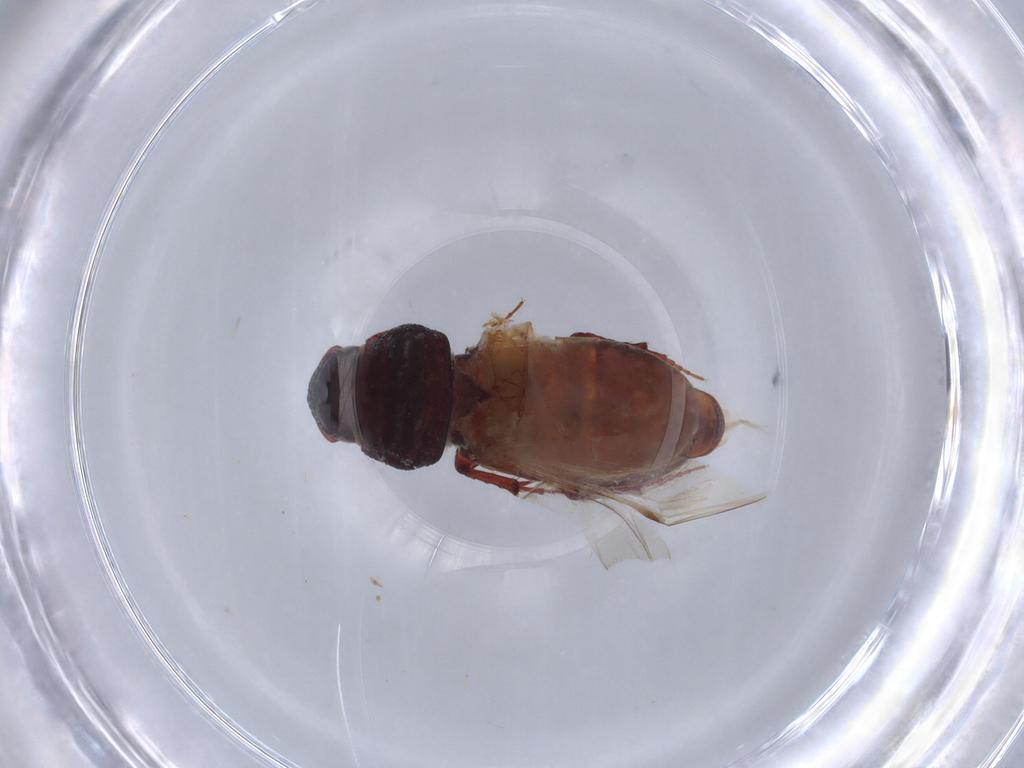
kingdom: Animalia
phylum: Arthropoda
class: Insecta
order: Coleoptera
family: Scarabaeidae
